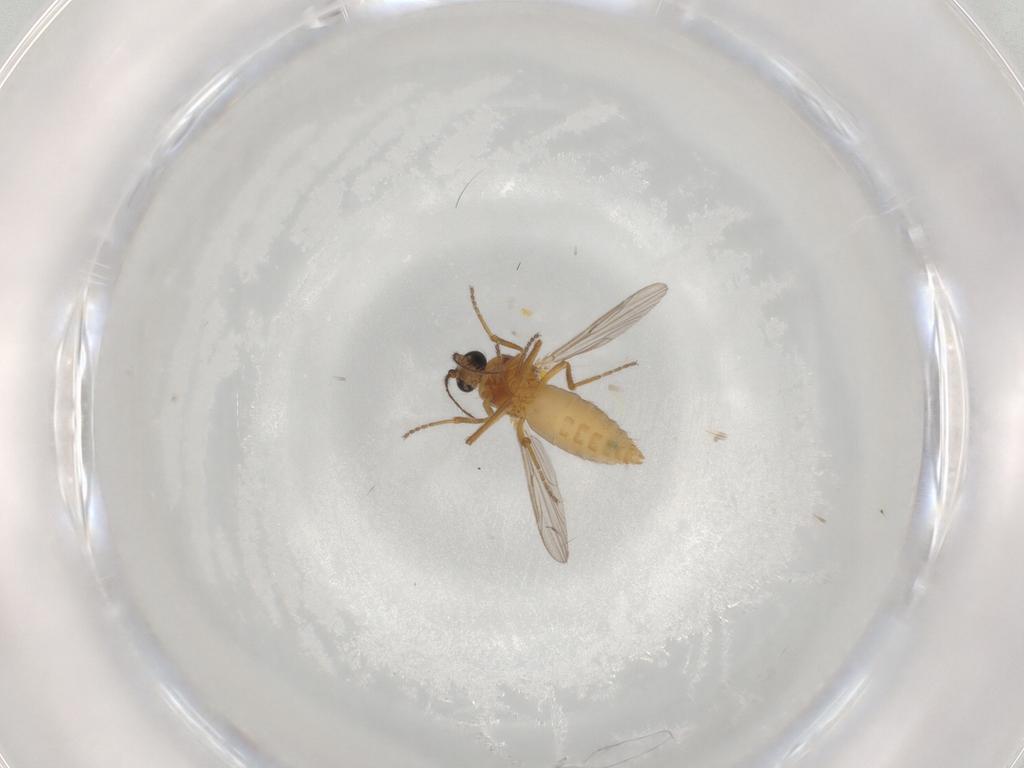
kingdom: Animalia
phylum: Arthropoda
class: Insecta
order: Diptera
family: Ceratopogonidae
